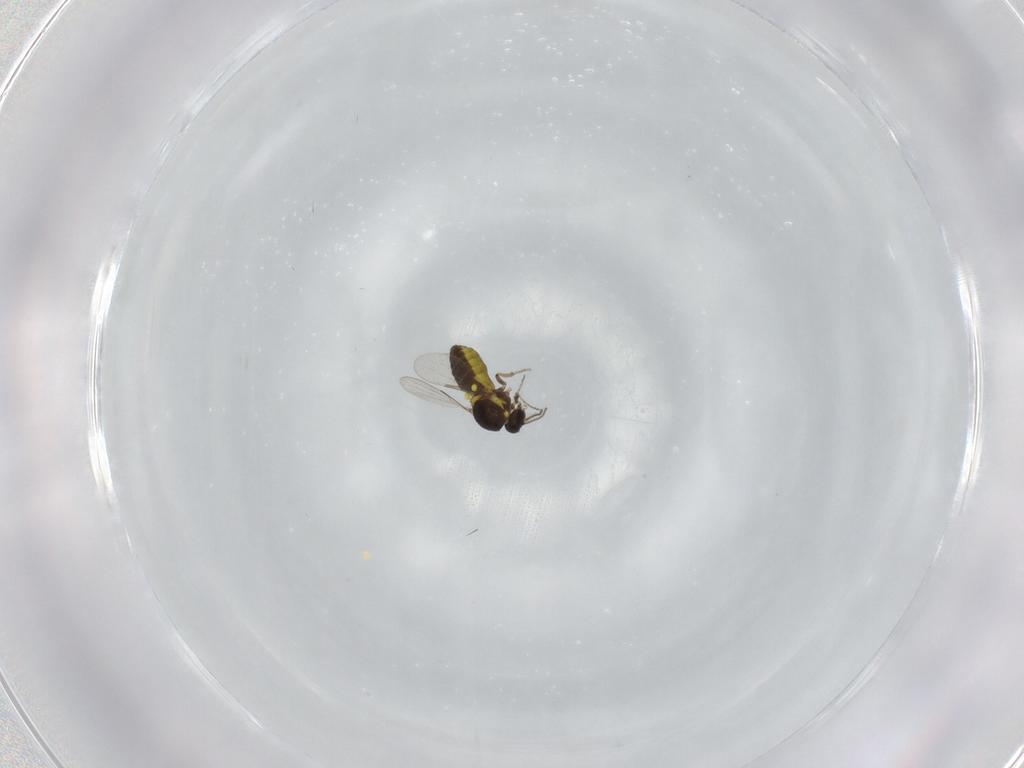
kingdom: Animalia
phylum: Arthropoda
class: Insecta
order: Diptera
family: Ceratopogonidae
